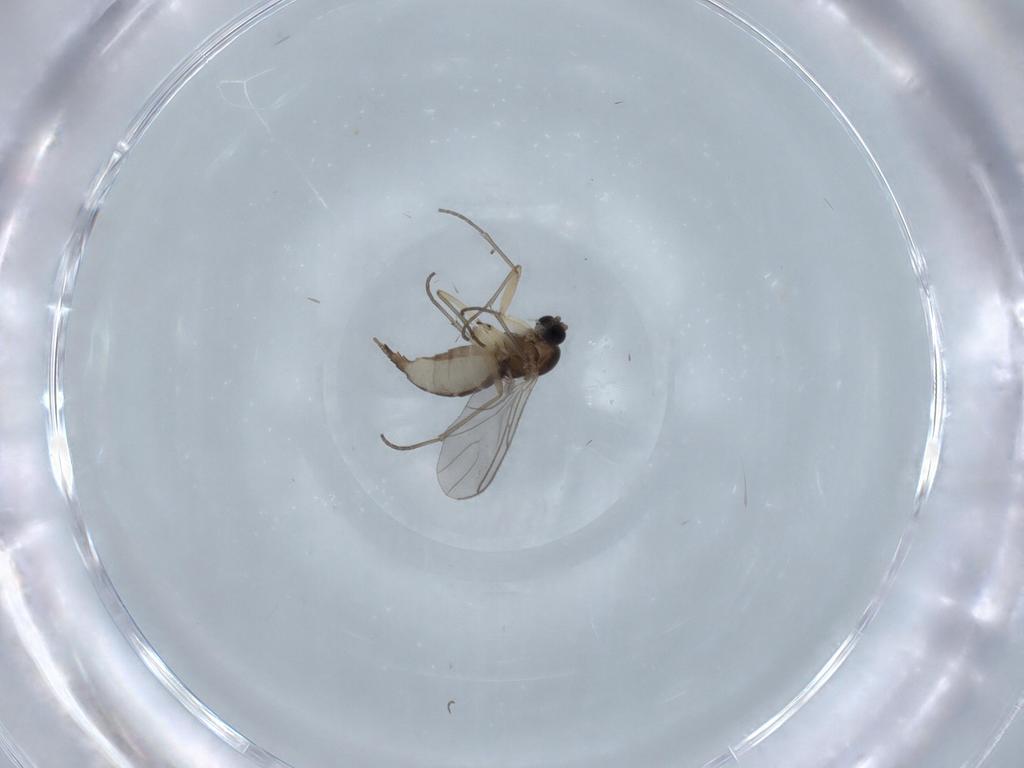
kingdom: Animalia
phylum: Arthropoda
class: Insecta
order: Diptera
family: Sciaridae
